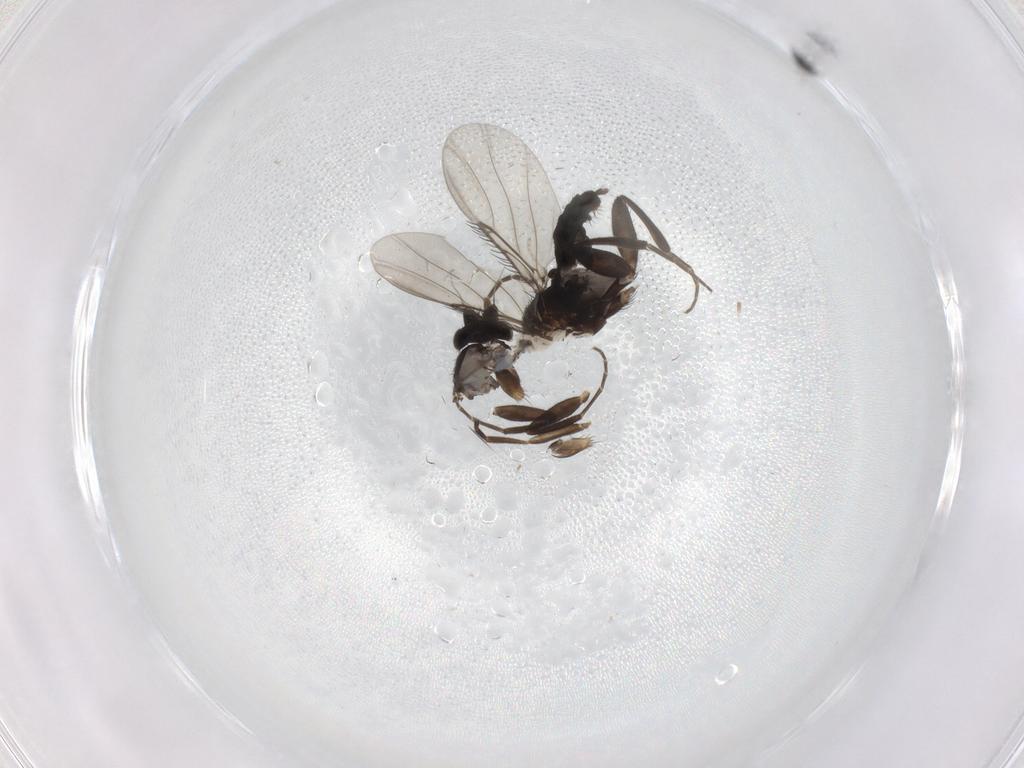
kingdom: Animalia
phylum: Arthropoda
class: Insecta
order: Diptera
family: Phoridae
